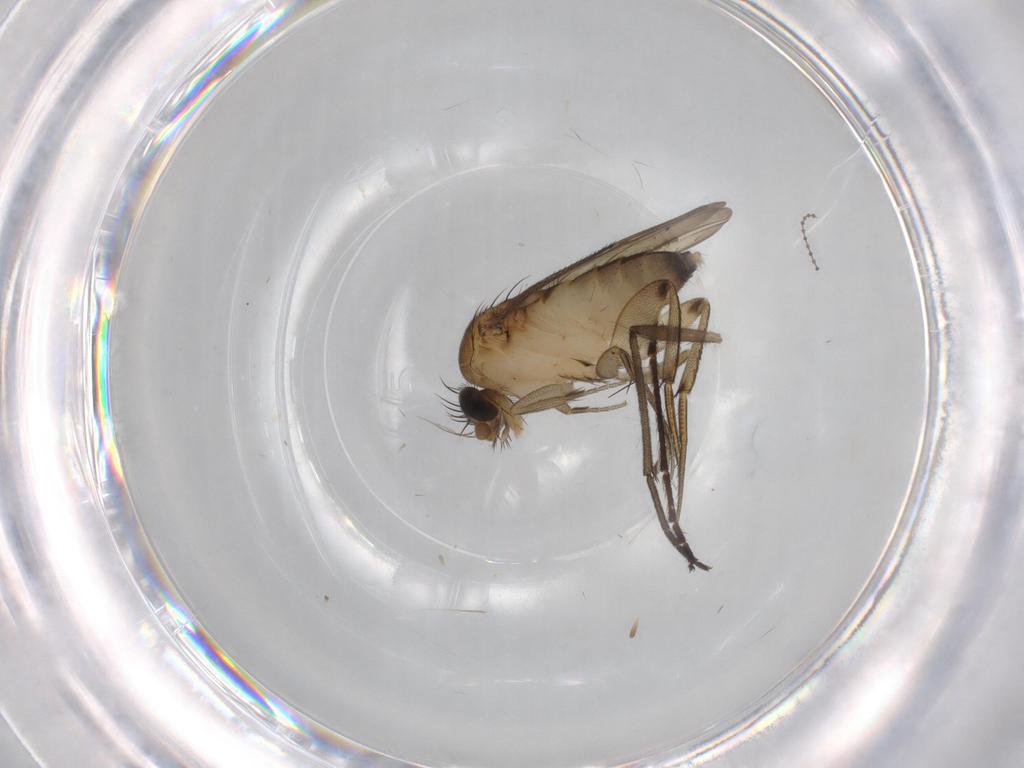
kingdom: Animalia
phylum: Arthropoda
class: Insecta
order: Diptera
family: Phoridae
